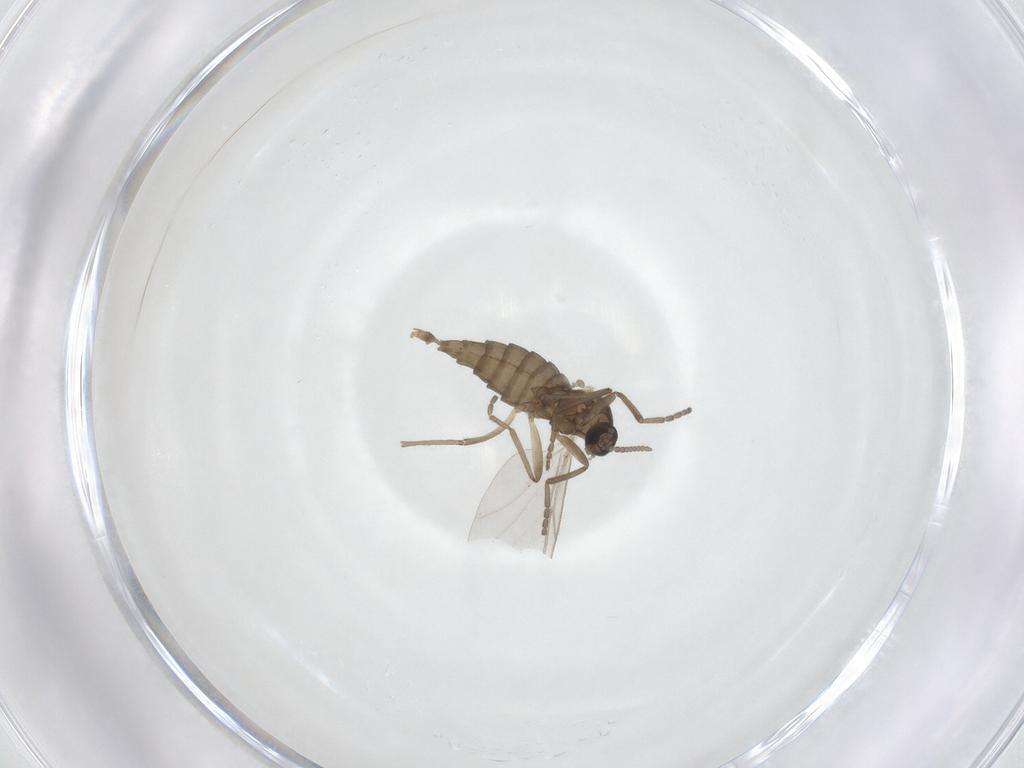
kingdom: Animalia
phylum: Arthropoda
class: Insecta
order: Diptera
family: Cecidomyiidae
